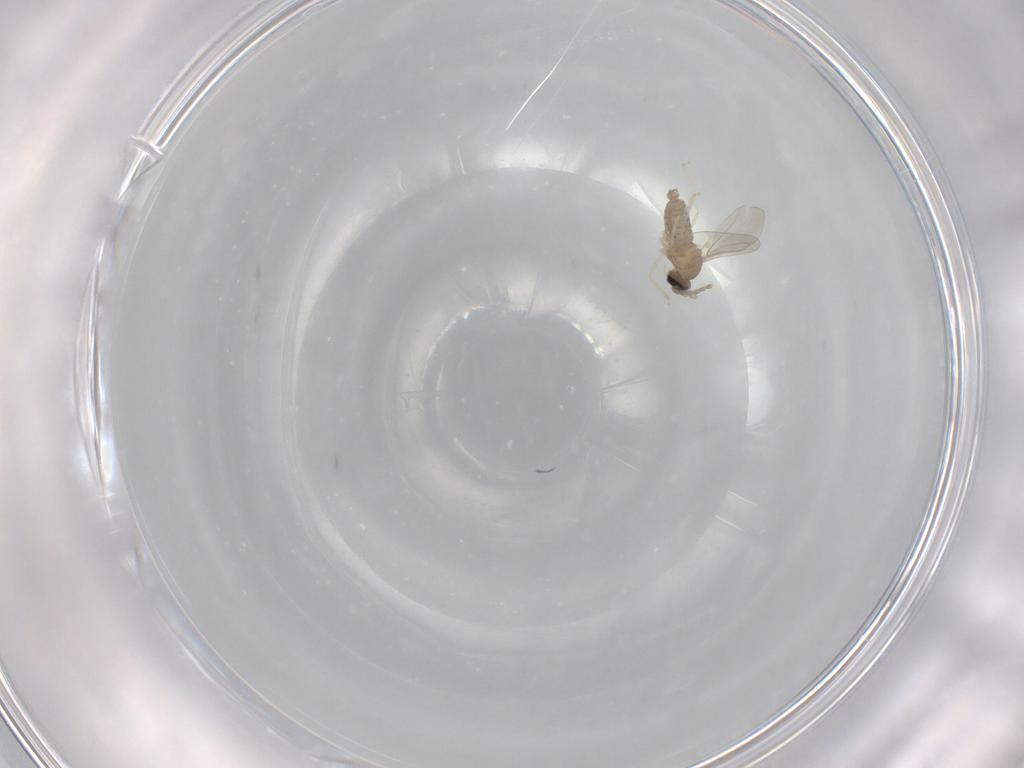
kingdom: Animalia
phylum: Arthropoda
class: Insecta
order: Diptera
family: Cecidomyiidae
